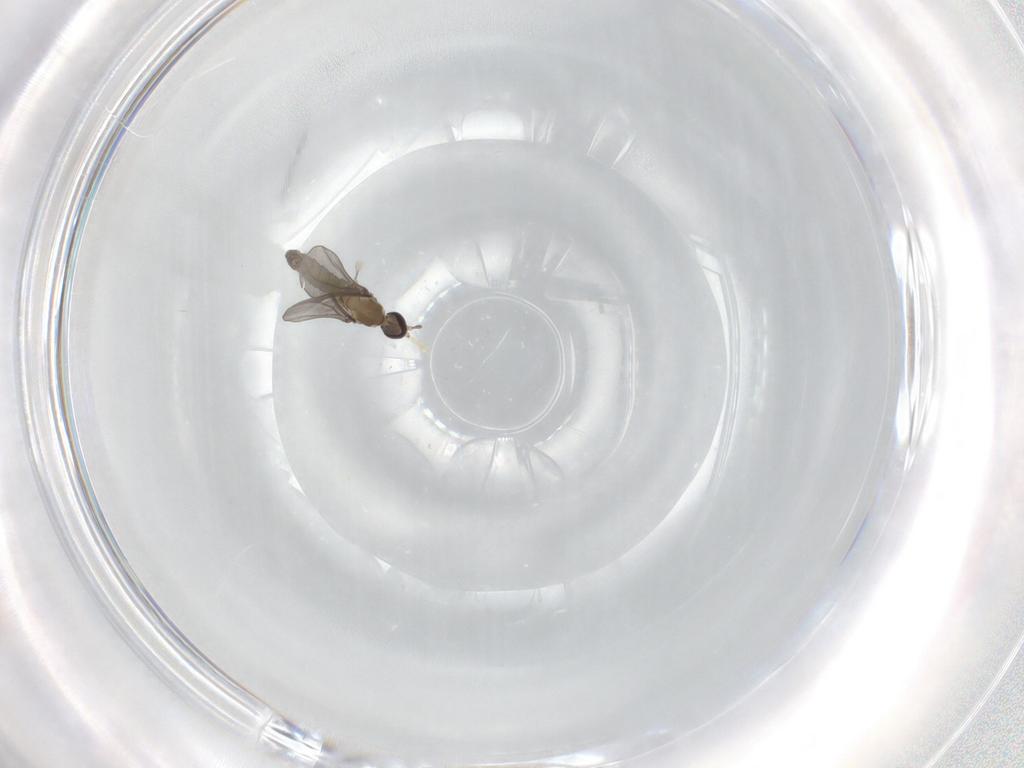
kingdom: Animalia
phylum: Arthropoda
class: Insecta
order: Diptera
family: Cecidomyiidae
